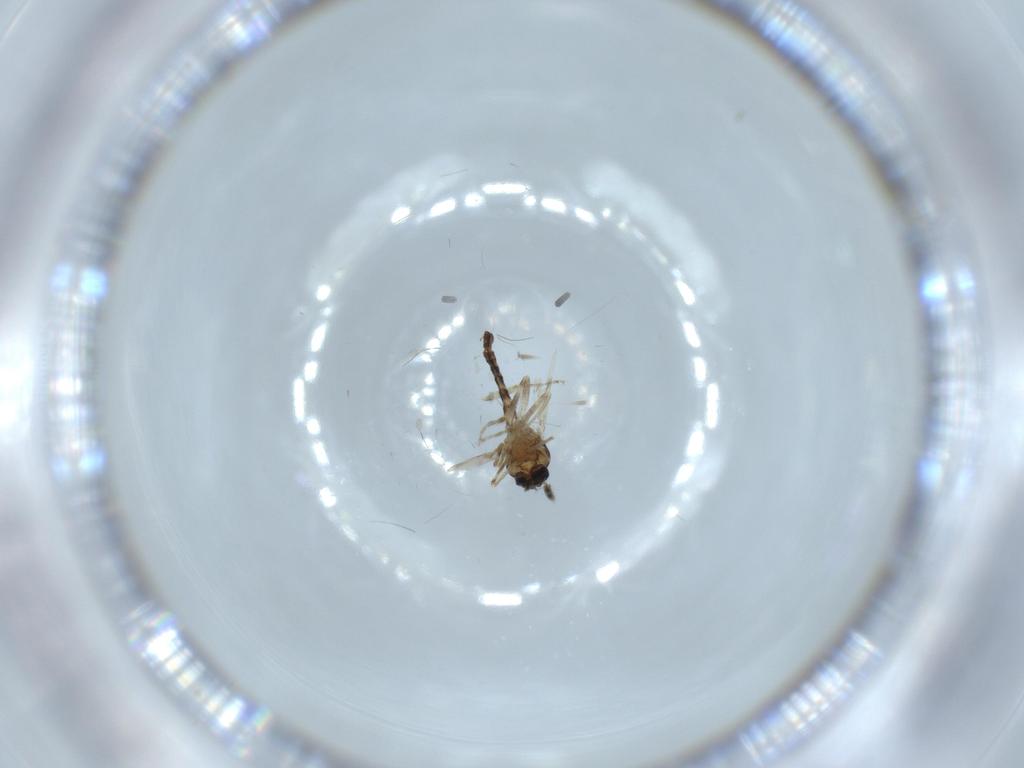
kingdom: Animalia
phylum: Arthropoda
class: Insecta
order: Diptera
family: Ceratopogonidae
